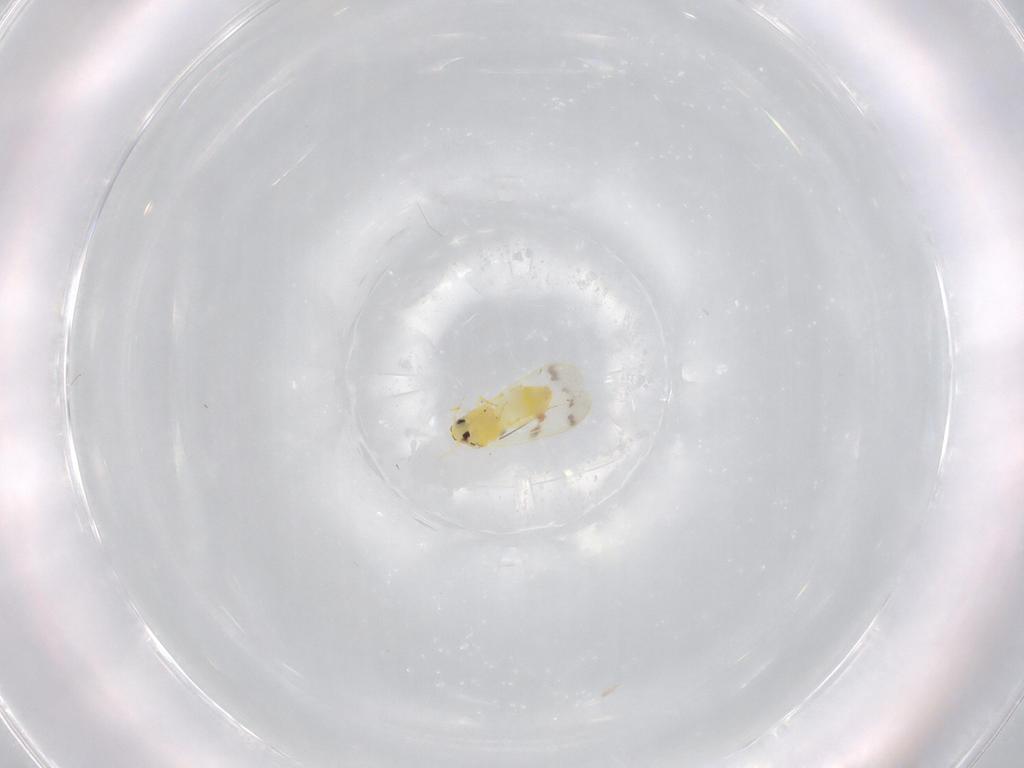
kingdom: Animalia
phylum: Arthropoda
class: Insecta
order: Hemiptera
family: Aleyrodidae
